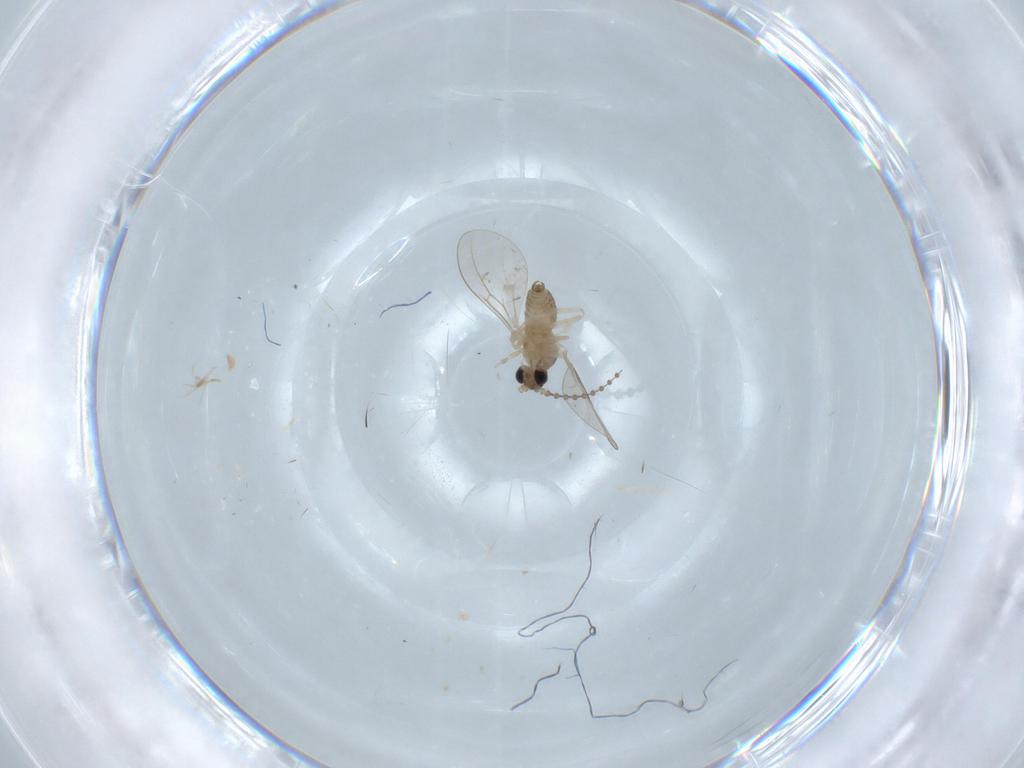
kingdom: Animalia
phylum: Arthropoda
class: Insecta
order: Diptera
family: Cecidomyiidae
